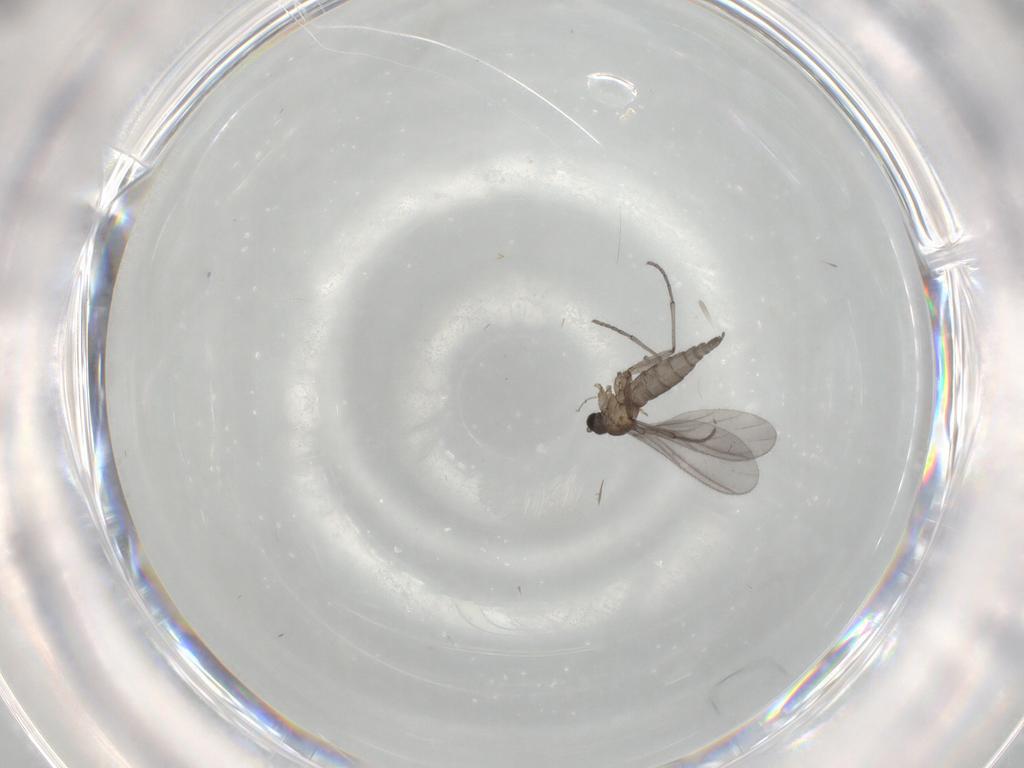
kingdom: Animalia
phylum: Arthropoda
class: Insecta
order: Diptera
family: Sciaridae
